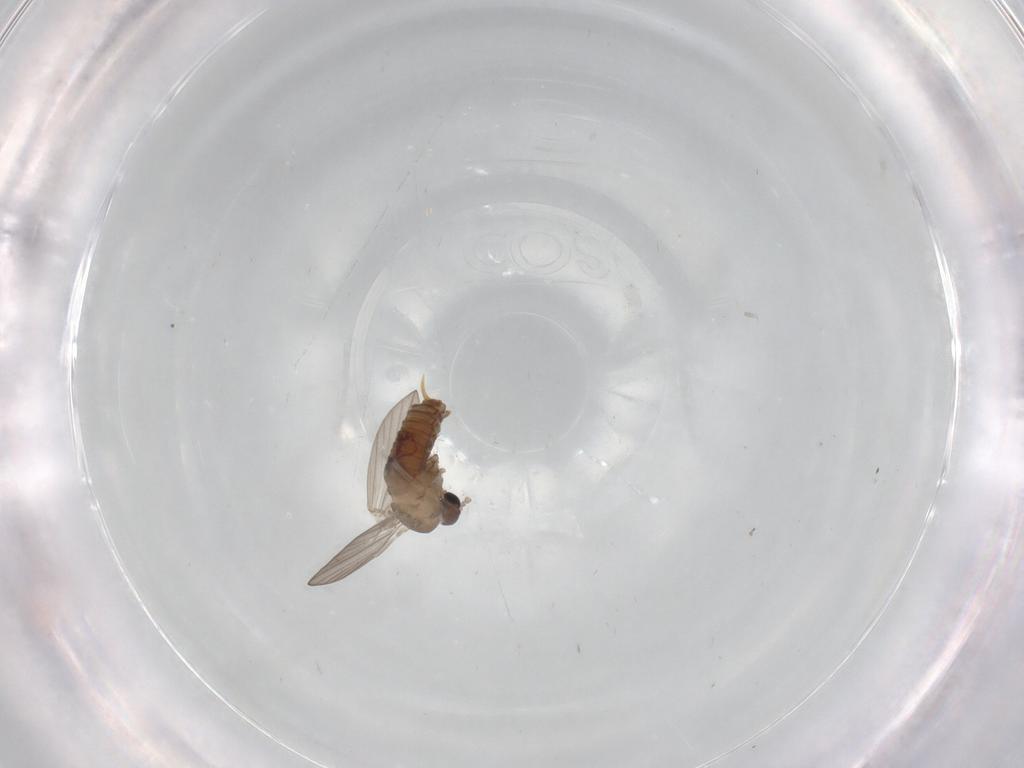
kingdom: Animalia
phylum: Arthropoda
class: Insecta
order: Diptera
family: Psychodidae
